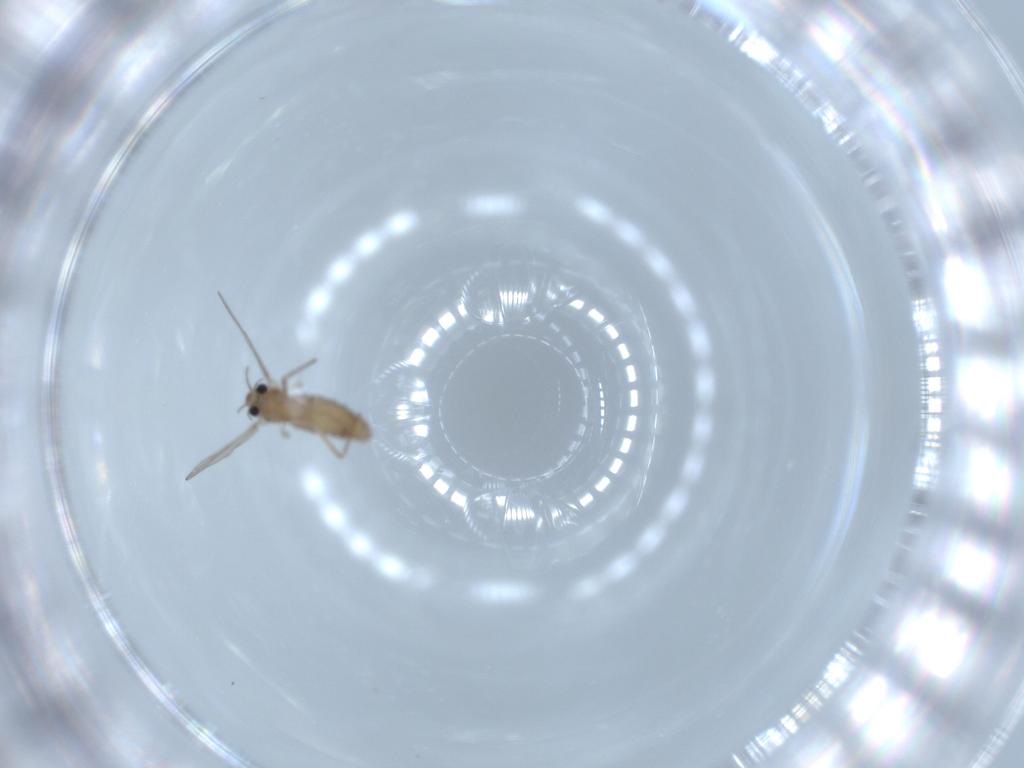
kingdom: Animalia
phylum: Arthropoda
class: Insecta
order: Diptera
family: Chironomidae
